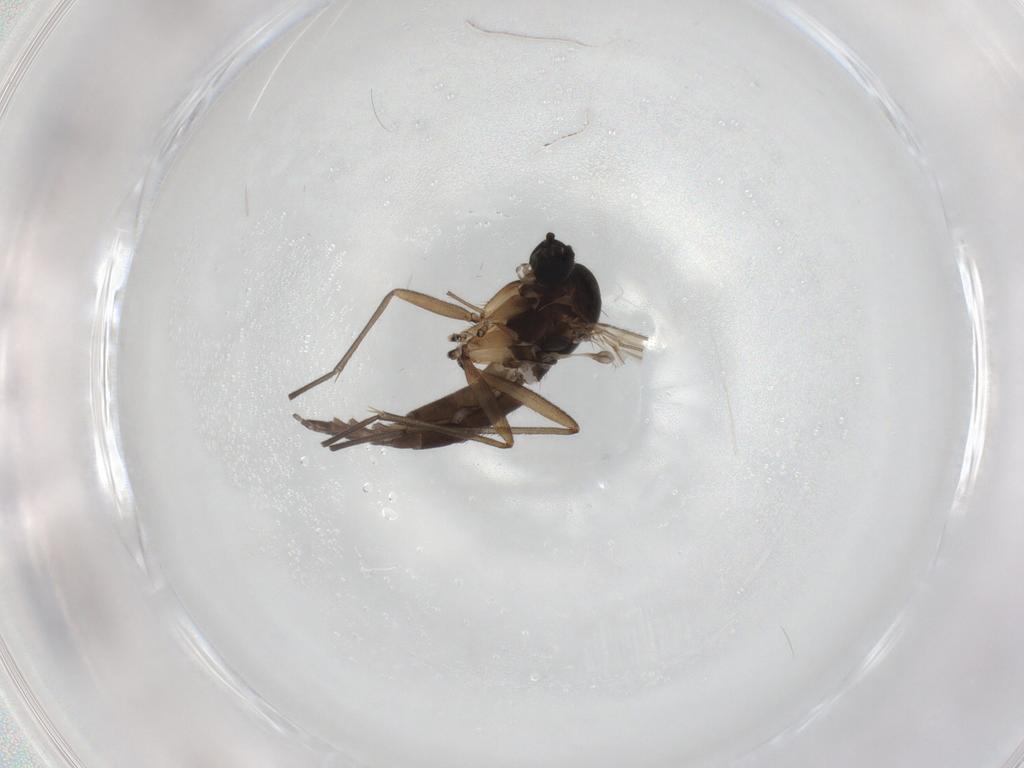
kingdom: Animalia
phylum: Arthropoda
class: Insecta
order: Diptera
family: Sciaridae
